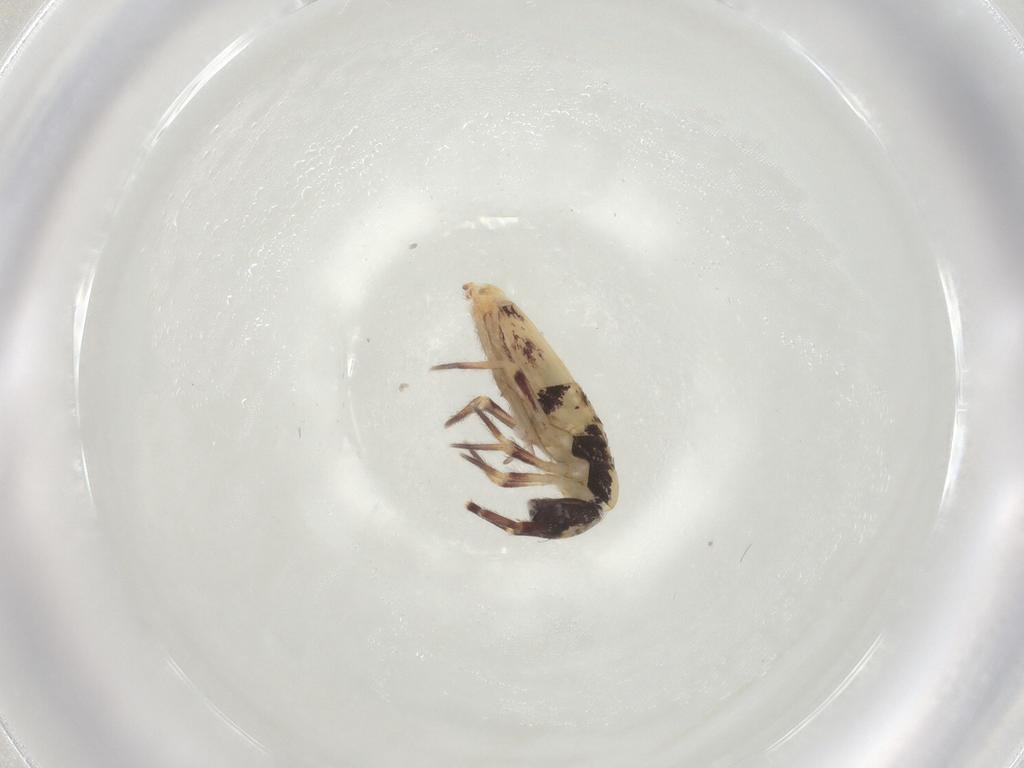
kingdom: Animalia
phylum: Arthropoda
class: Collembola
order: Entomobryomorpha
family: Entomobryidae
